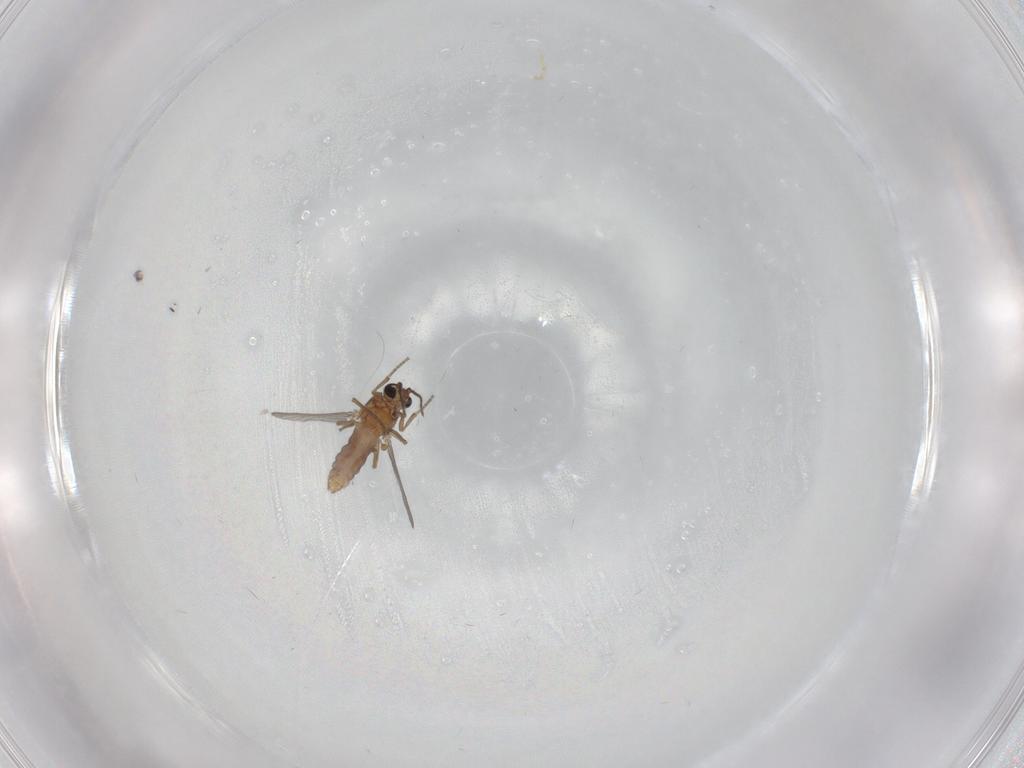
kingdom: Animalia
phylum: Arthropoda
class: Insecta
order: Diptera
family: Ceratopogonidae
